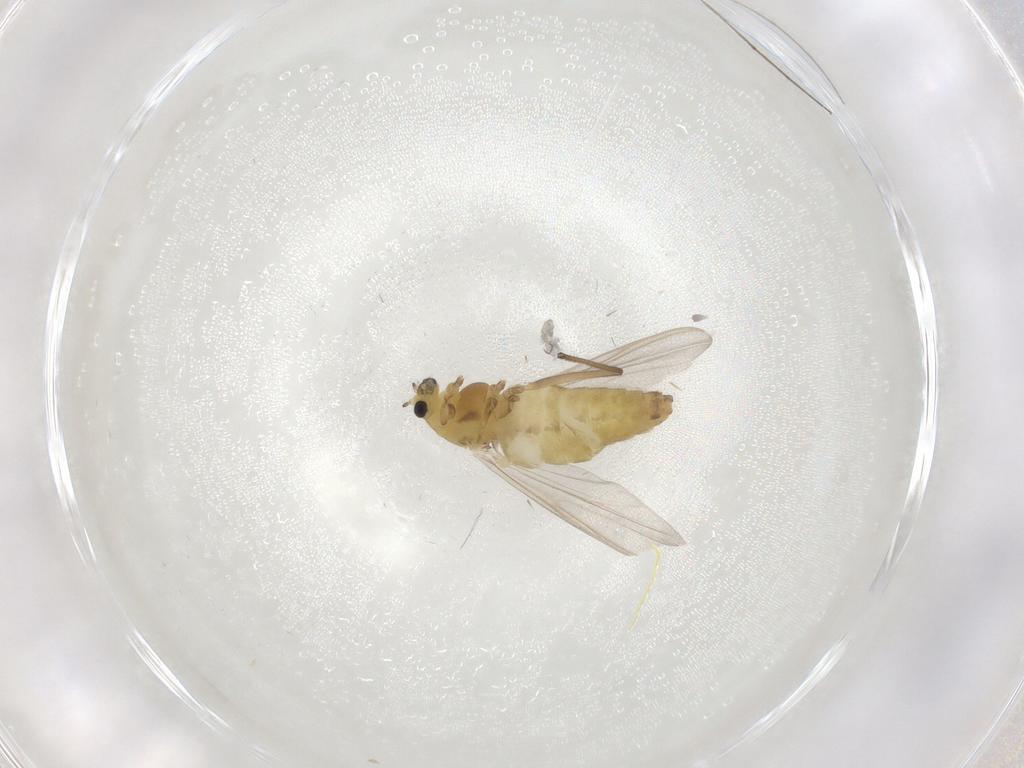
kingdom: Animalia
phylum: Arthropoda
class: Insecta
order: Diptera
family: Chironomidae
